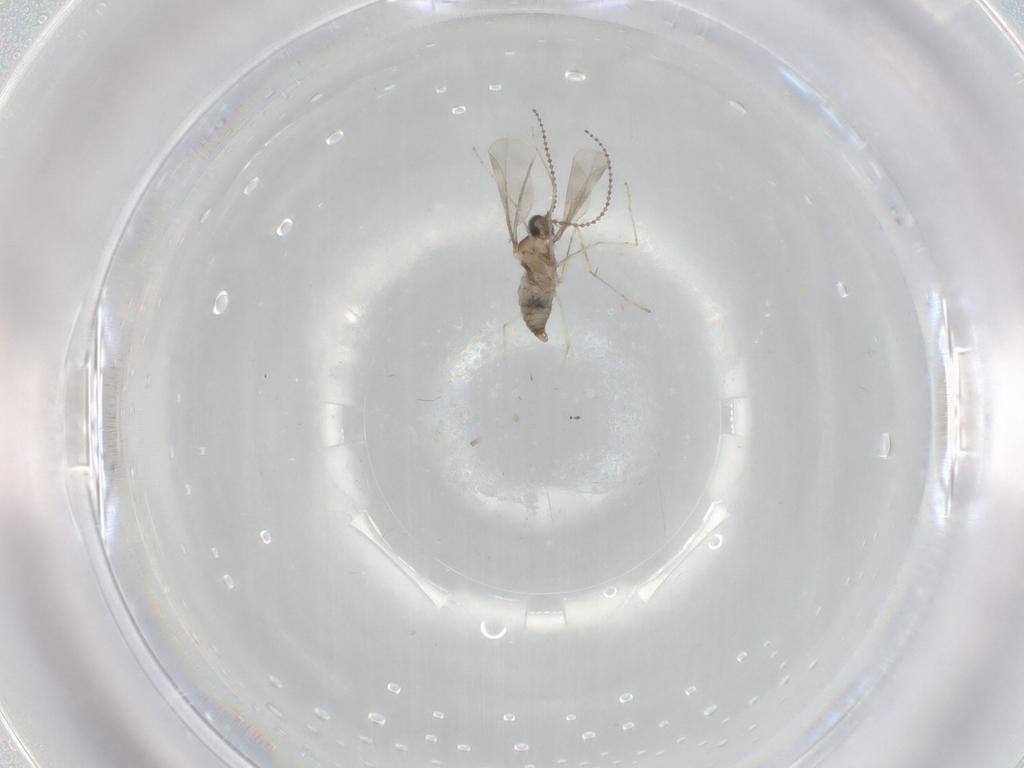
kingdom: Animalia
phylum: Arthropoda
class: Insecta
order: Diptera
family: Cecidomyiidae
